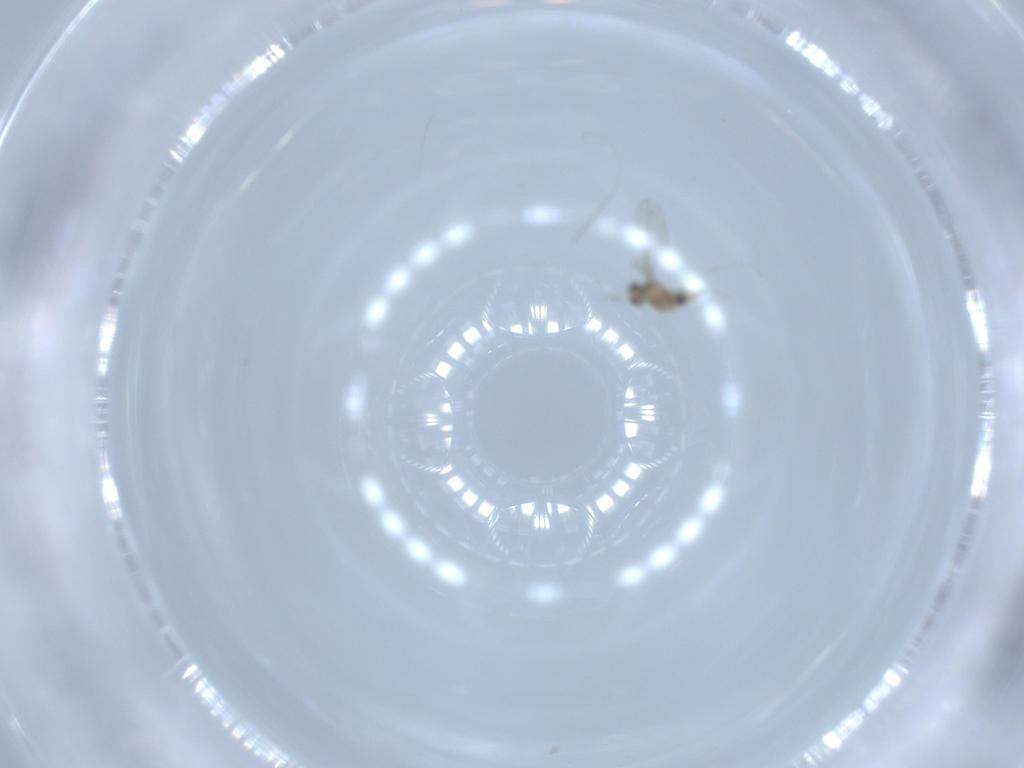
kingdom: Animalia
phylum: Arthropoda
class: Insecta
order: Diptera
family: Cecidomyiidae
